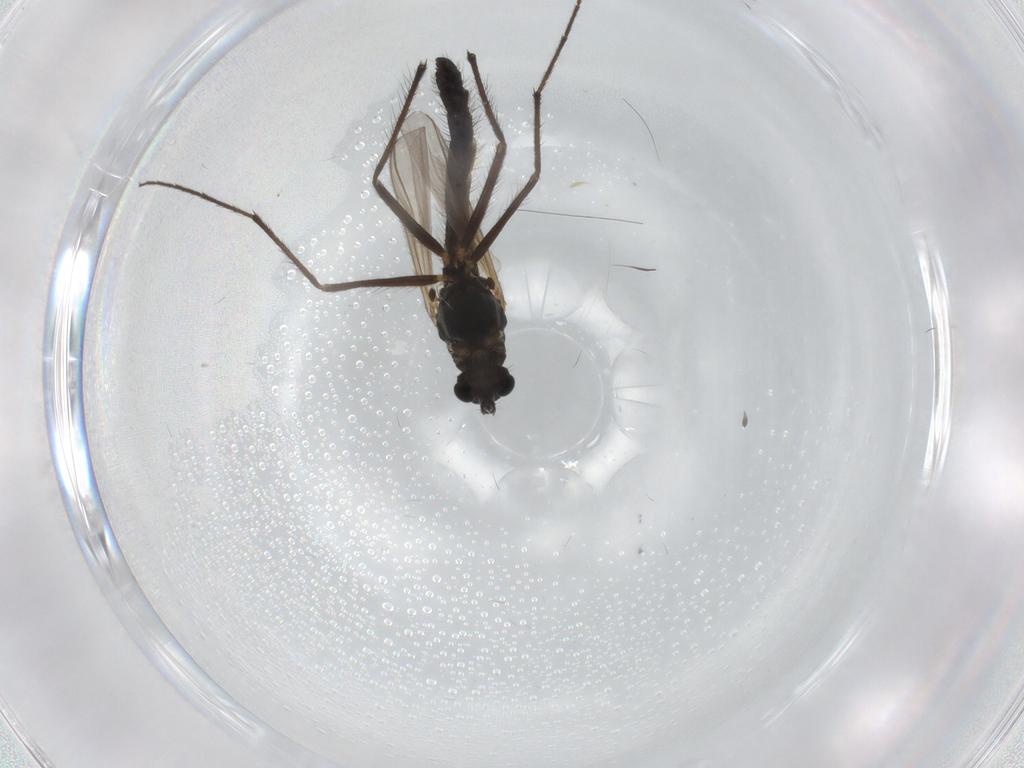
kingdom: Animalia
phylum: Arthropoda
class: Insecta
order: Diptera
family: Chironomidae
